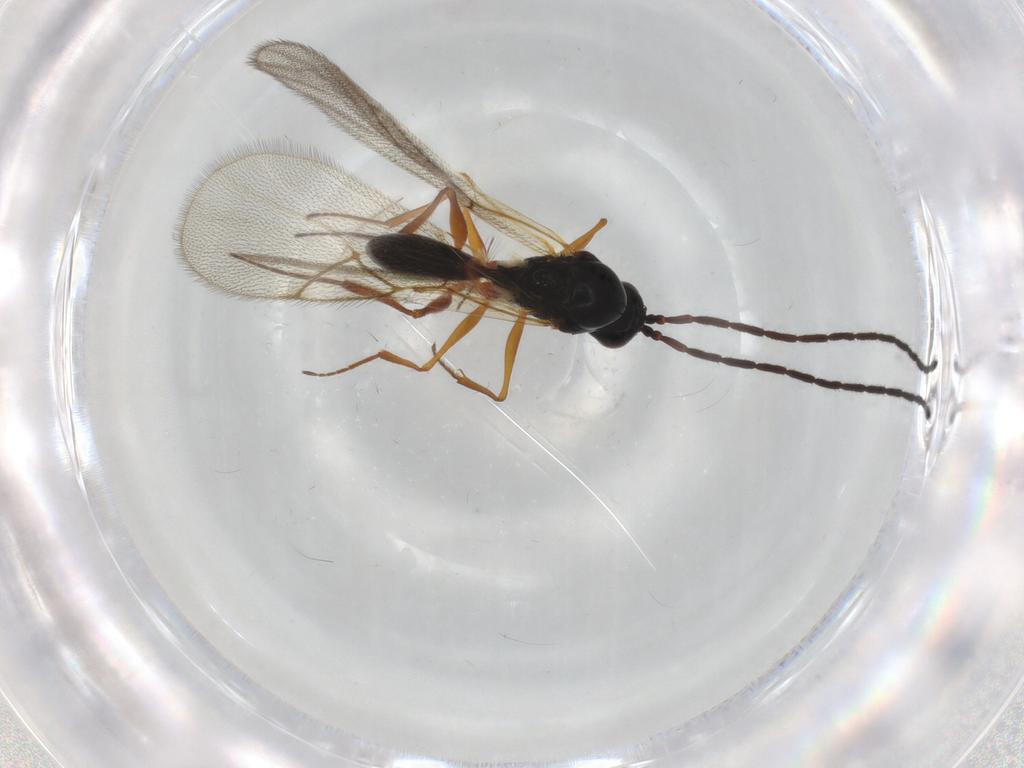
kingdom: Animalia
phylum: Arthropoda
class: Insecta
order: Hymenoptera
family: Figitidae
